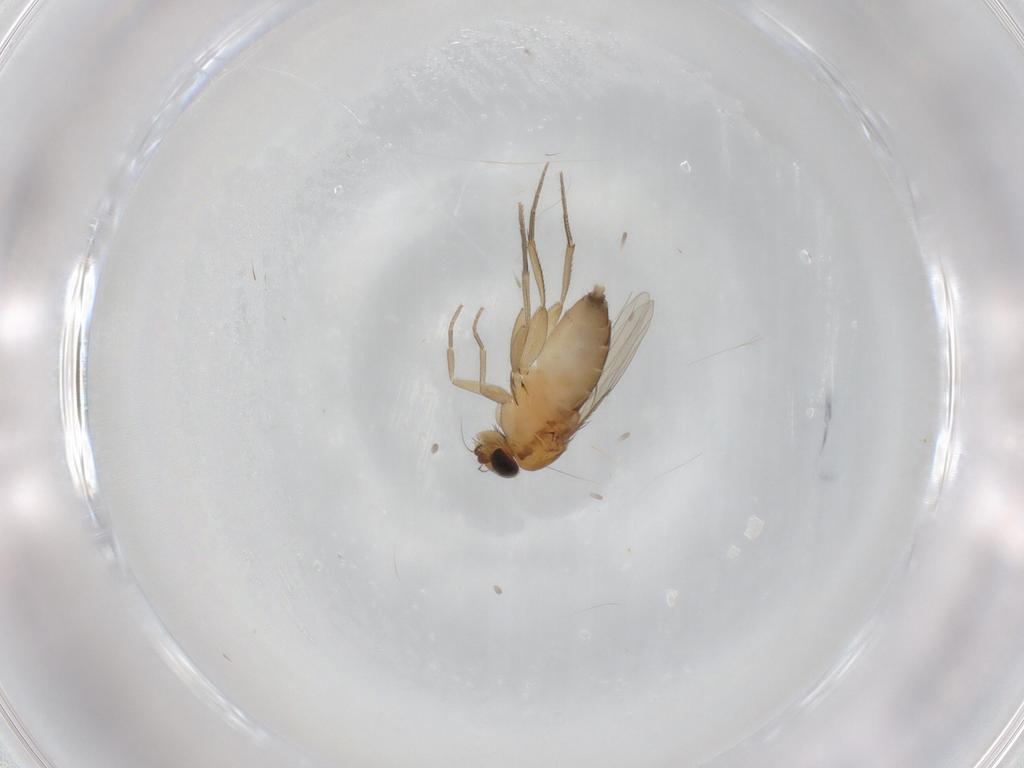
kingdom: Animalia
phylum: Arthropoda
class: Insecta
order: Diptera
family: Phoridae
